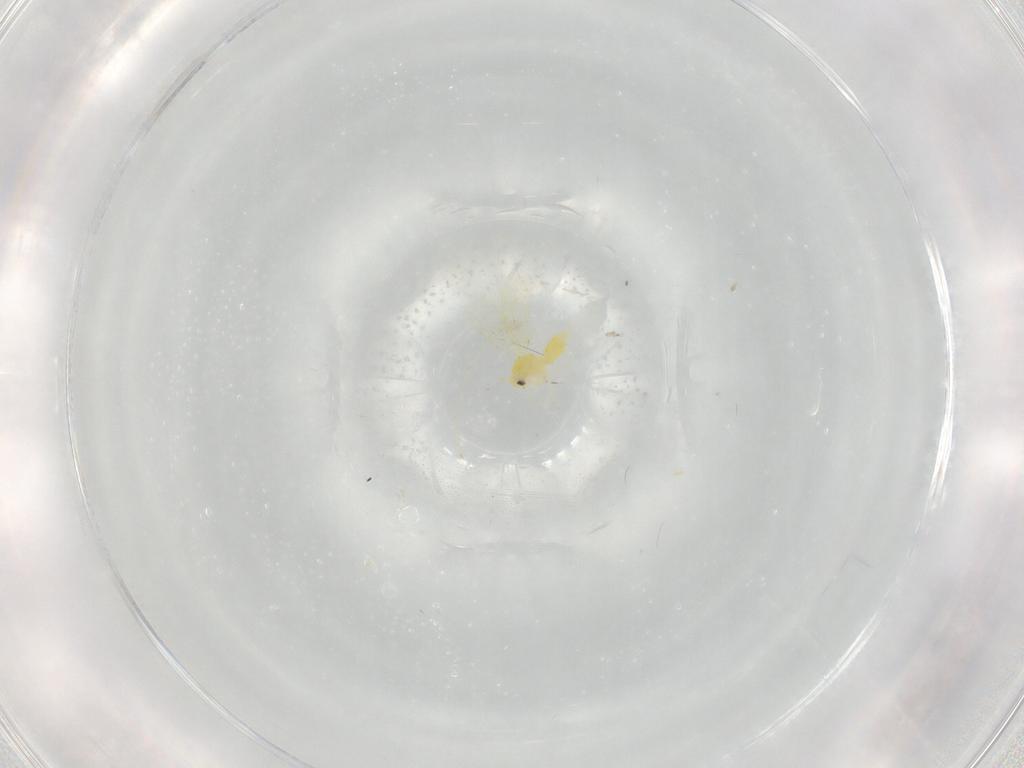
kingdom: Animalia
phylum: Arthropoda
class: Insecta
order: Hemiptera
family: Aleyrodidae
